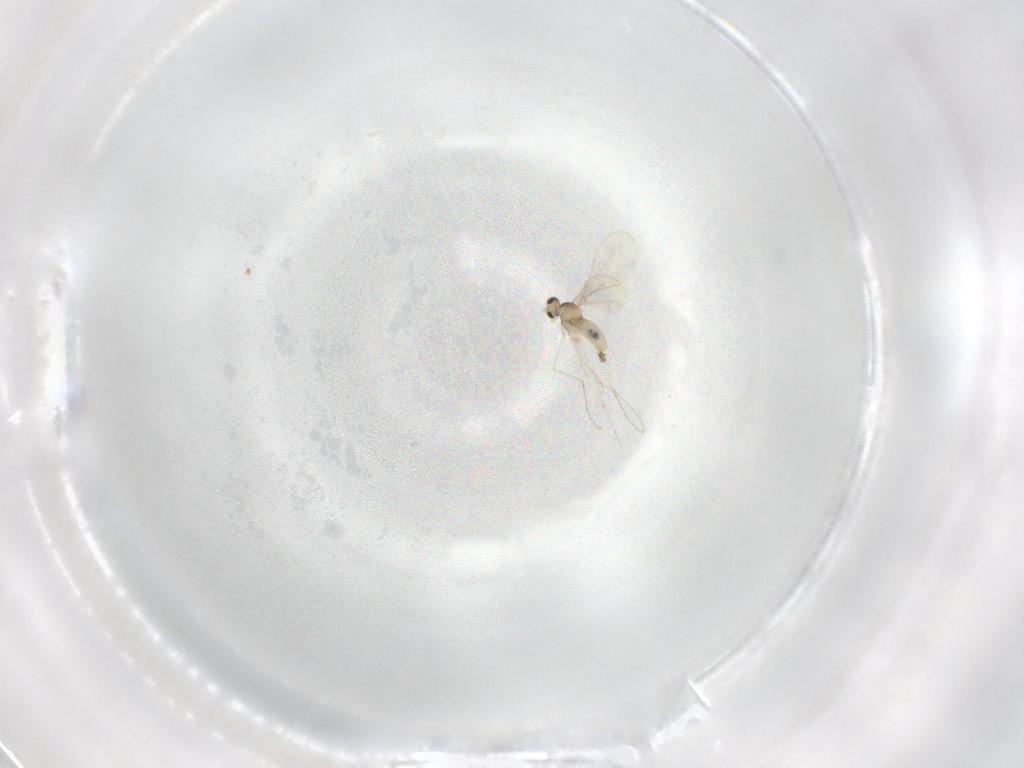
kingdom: Animalia
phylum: Arthropoda
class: Insecta
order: Diptera
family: Cecidomyiidae
